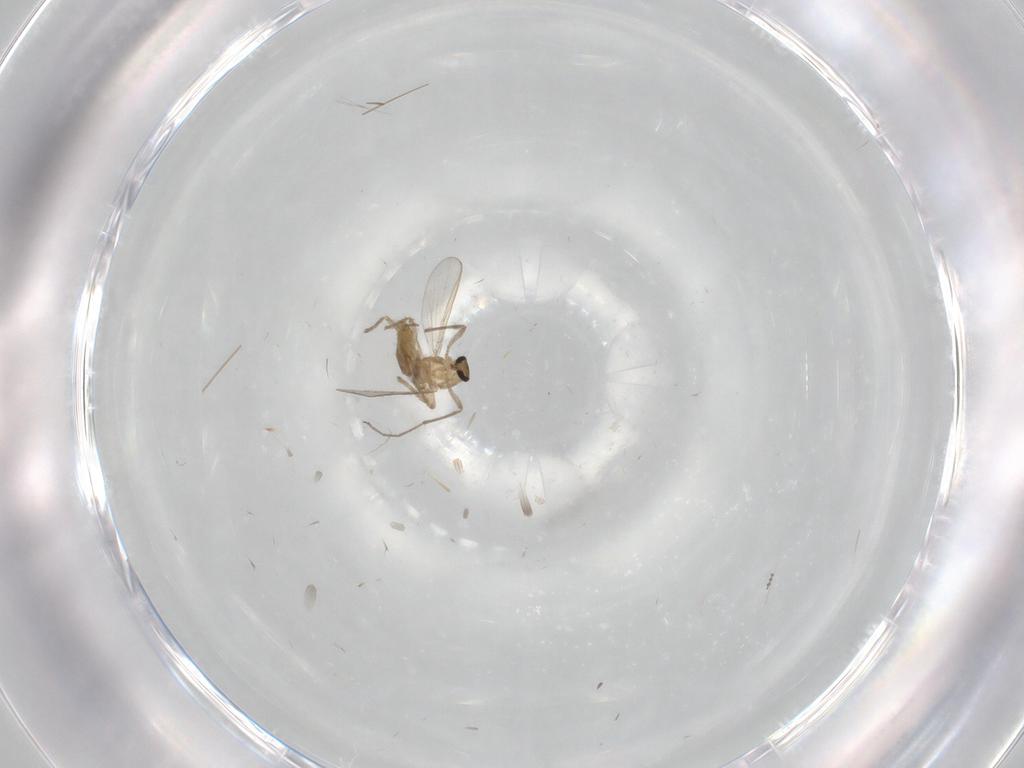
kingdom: Animalia
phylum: Arthropoda
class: Insecta
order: Diptera
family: Chironomidae
